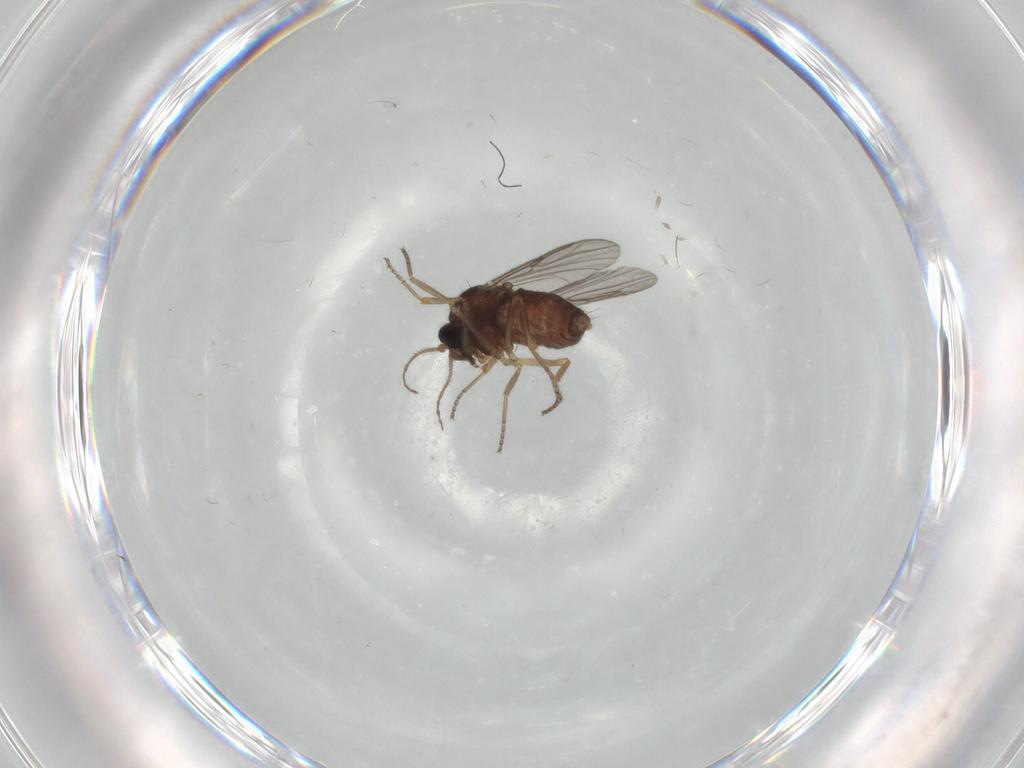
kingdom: Animalia
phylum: Arthropoda
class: Insecta
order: Diptera
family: Ceratopogonidae
